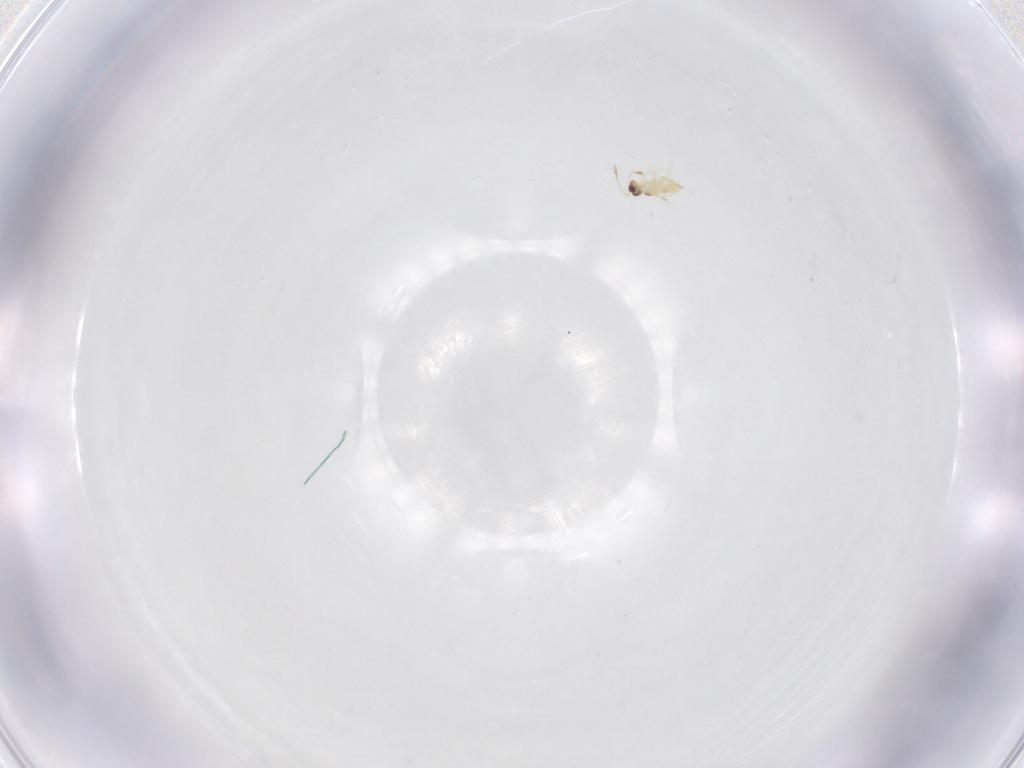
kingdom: Animalia
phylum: Arthropoda
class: Insecta
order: Hymenoptera
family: Mymaridae
